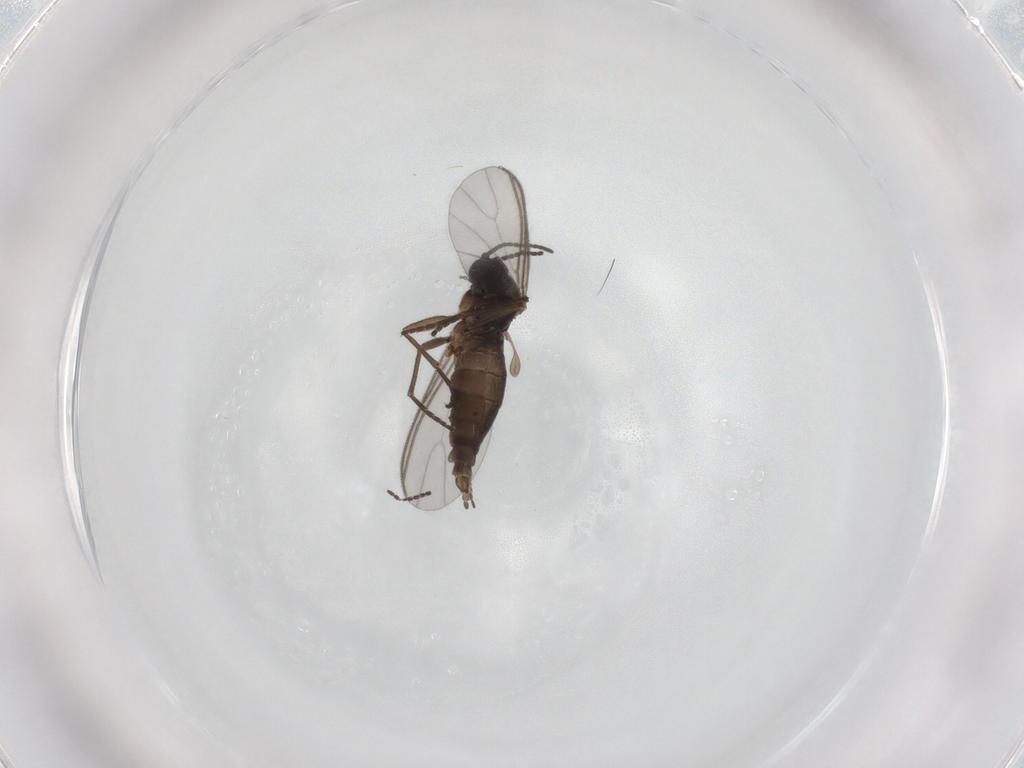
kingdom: Animalia
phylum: Arthropoda
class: Insecta
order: Diptera
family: Sciaridae
